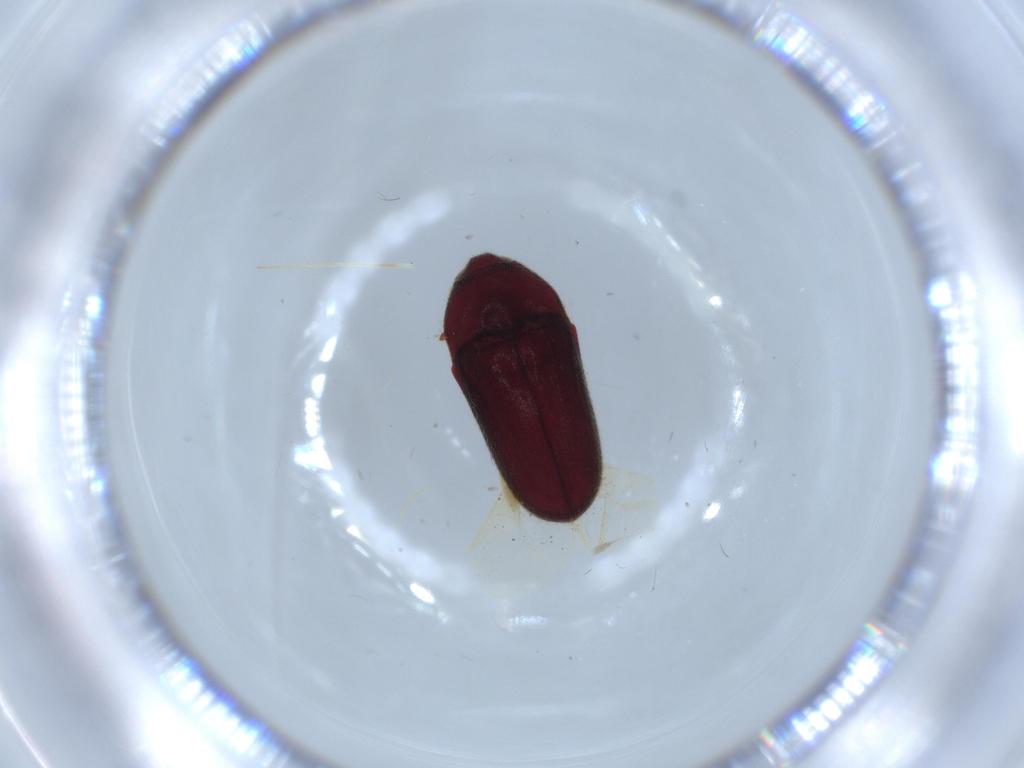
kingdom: Animalia
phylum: Arthropoda
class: Insecta
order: Coleoptera
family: Throscidae
